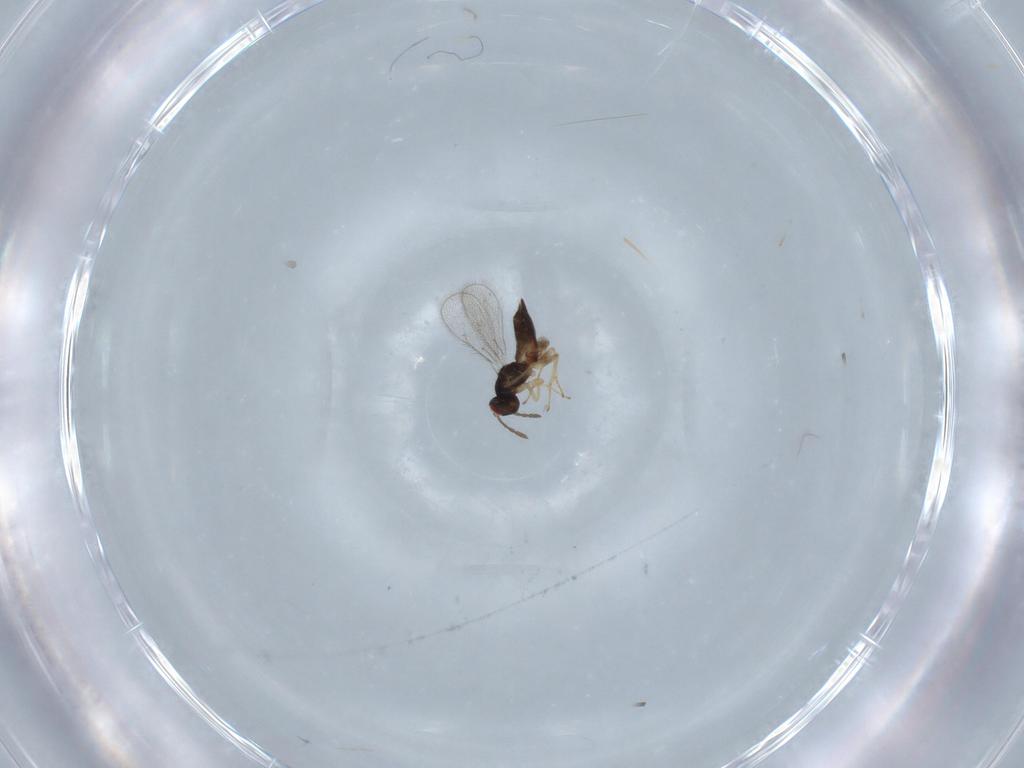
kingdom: Animalia
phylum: Arthropoda
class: Insecta
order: Hymenoptera
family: Eulophidae
